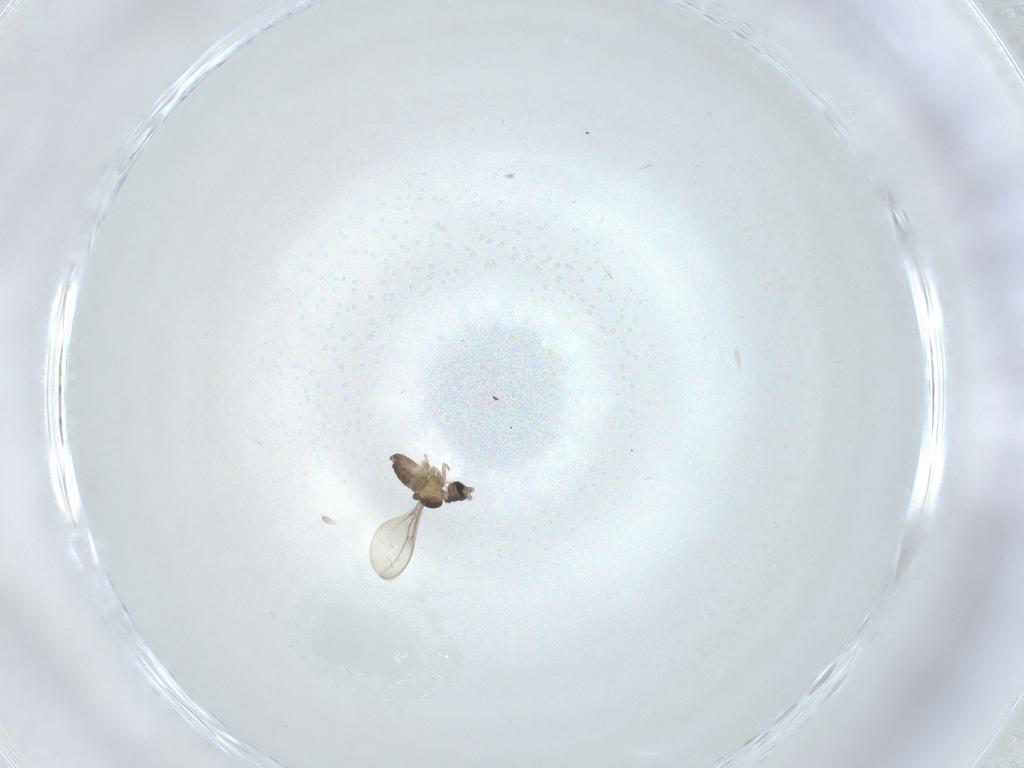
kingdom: Animalia
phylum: Arthropoda
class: Insecta
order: Diptera
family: Cecidomyiidae
